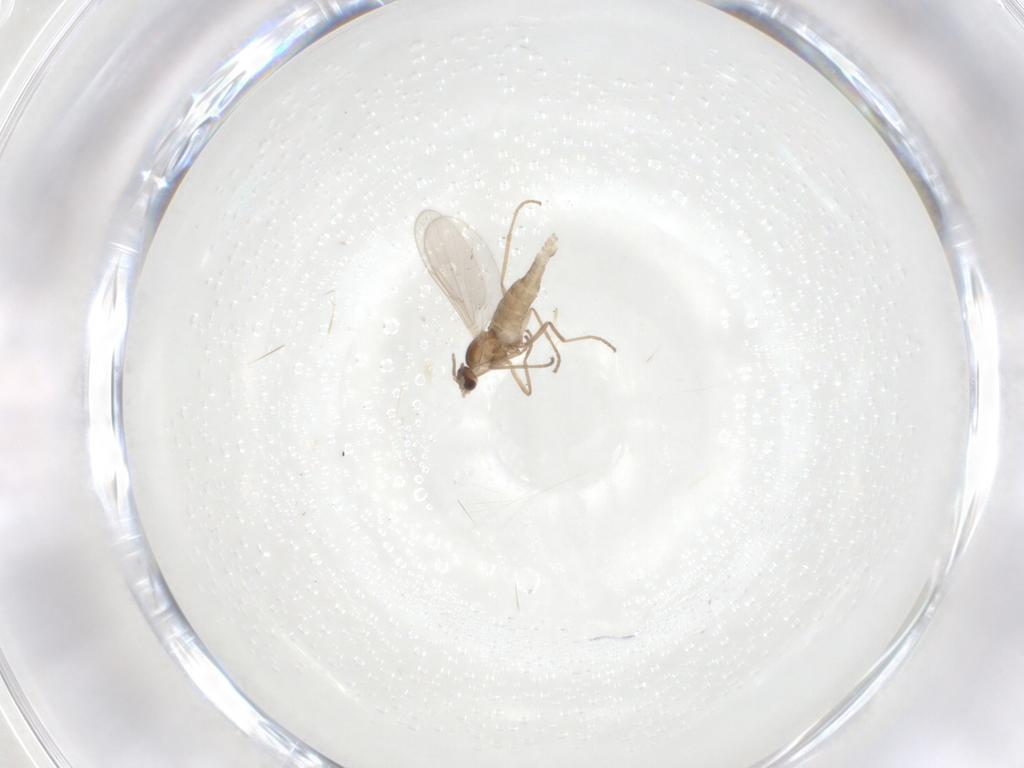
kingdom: Animalia
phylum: Arthropoda
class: Insecta
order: Diptera
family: Cecidomyiidae
